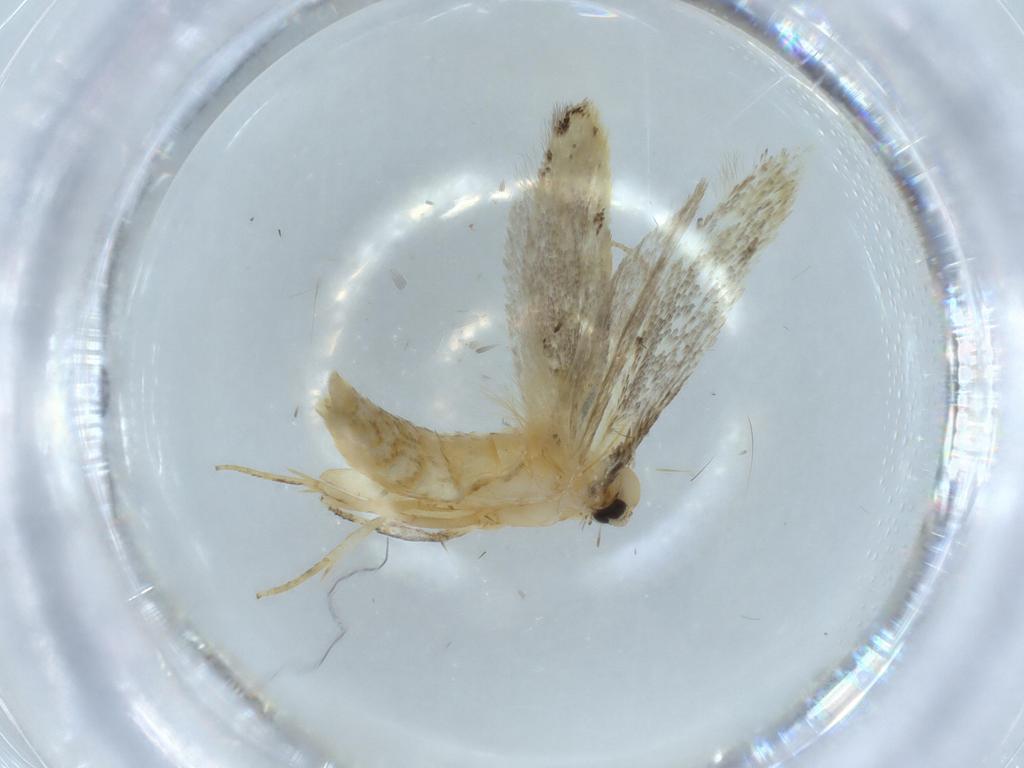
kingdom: Animalia
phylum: Arthropoda
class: Insecta
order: Lepidoptera
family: Autostichidae
